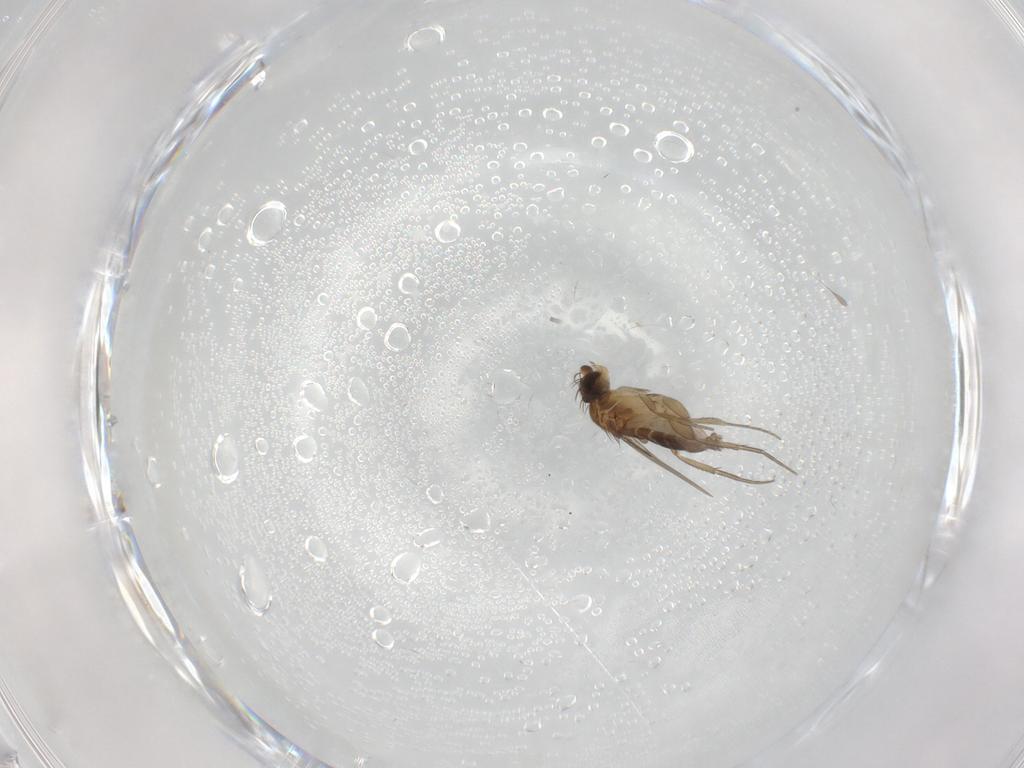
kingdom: Animalia
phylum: Arthropoda
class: Insecta
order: Diptera
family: Phoridae
